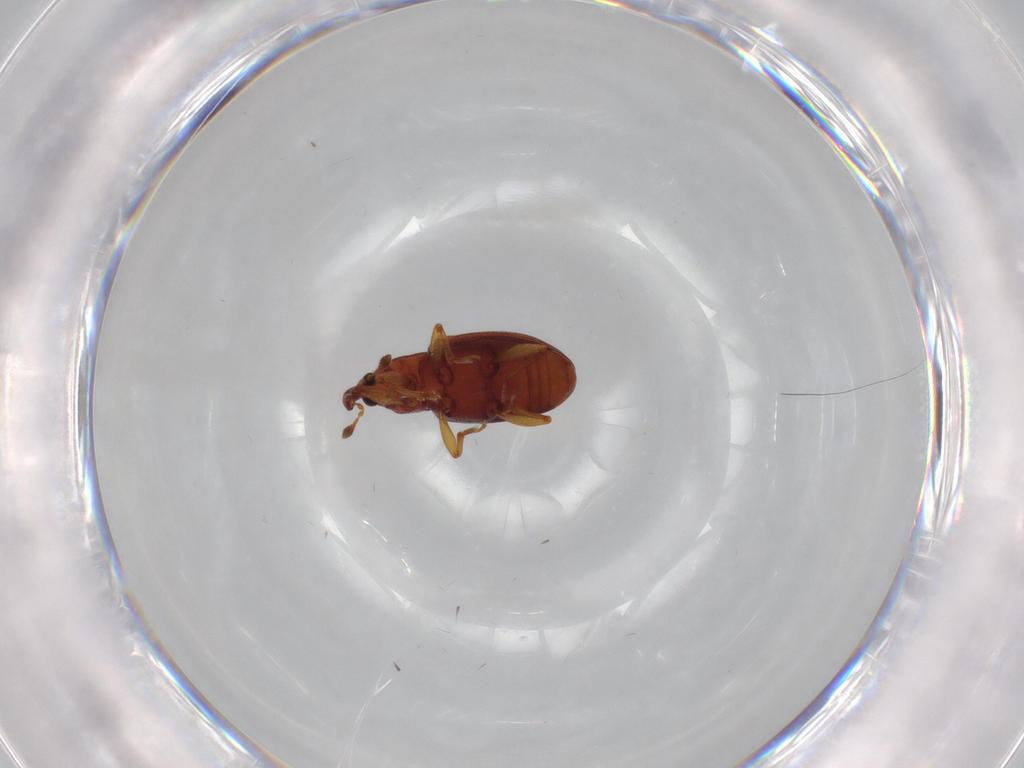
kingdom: Animalia
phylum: Arthropoda
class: Insecta
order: Coleoptera
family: Curculionidae
